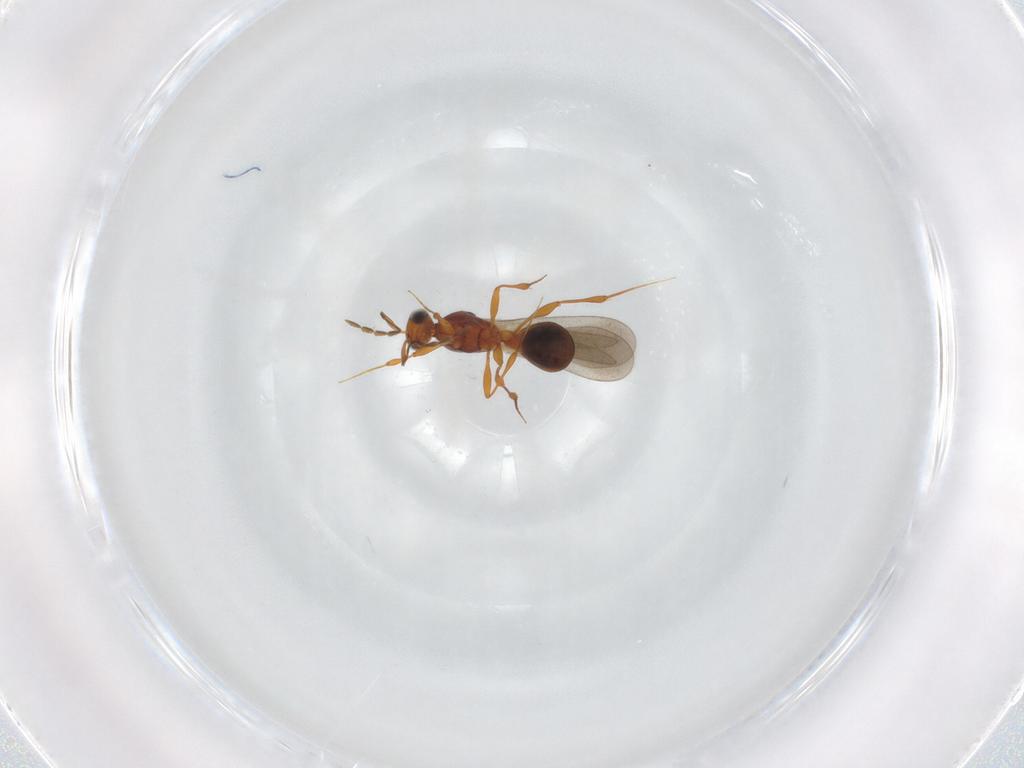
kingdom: Animalia
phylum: Arthropoda
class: Insecta
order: Hymenoptera
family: Platygastridae
